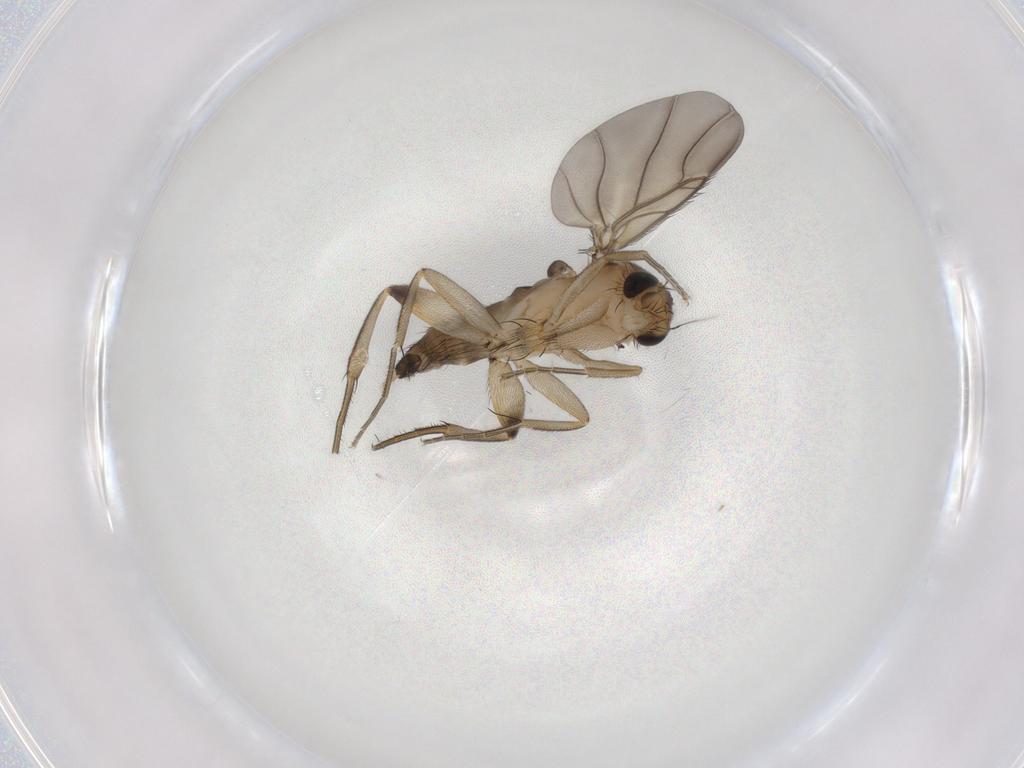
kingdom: Animalia
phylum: Arthropoda
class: Insecta
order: Diptera
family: Phoridae
